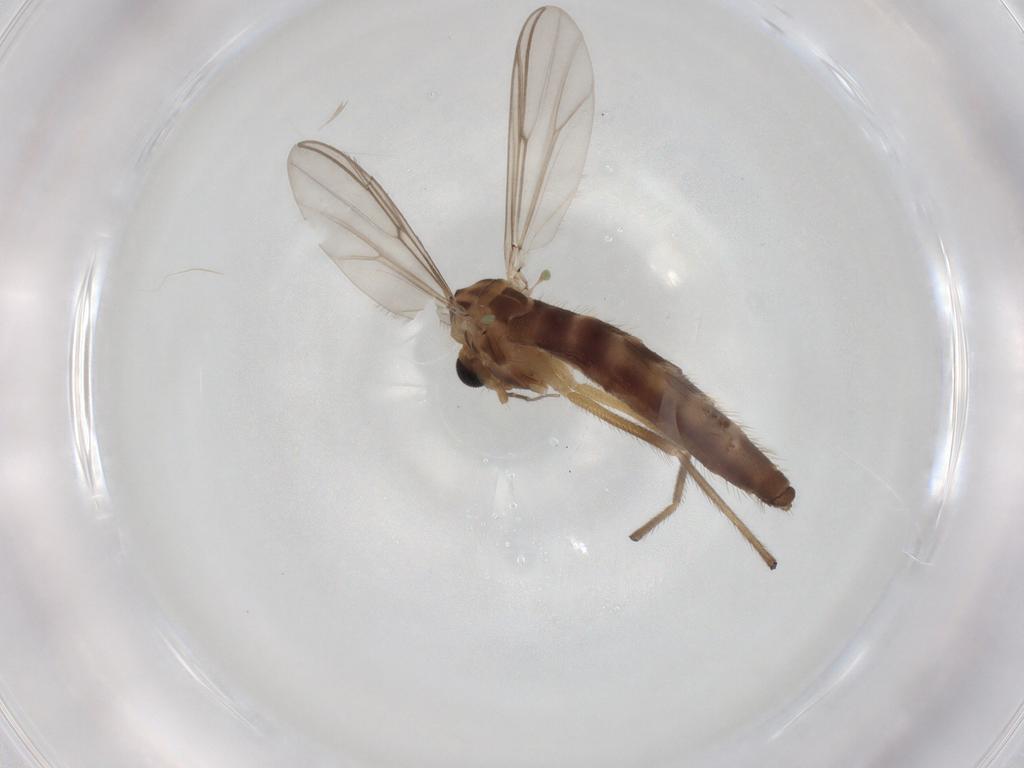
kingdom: Animalia
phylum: Arthropoda
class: Insecta
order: Diptera
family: Chironomidae
